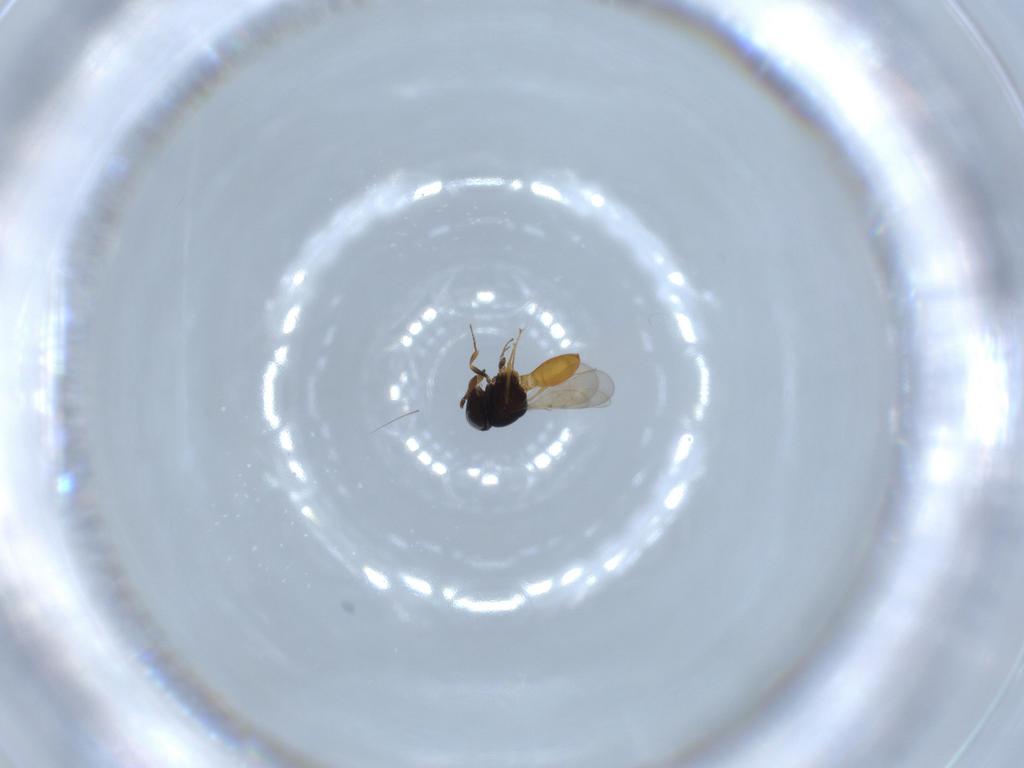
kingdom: Animalia
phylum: Arthropoda
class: Insecta
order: Hymenoptera
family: Scelionidae
